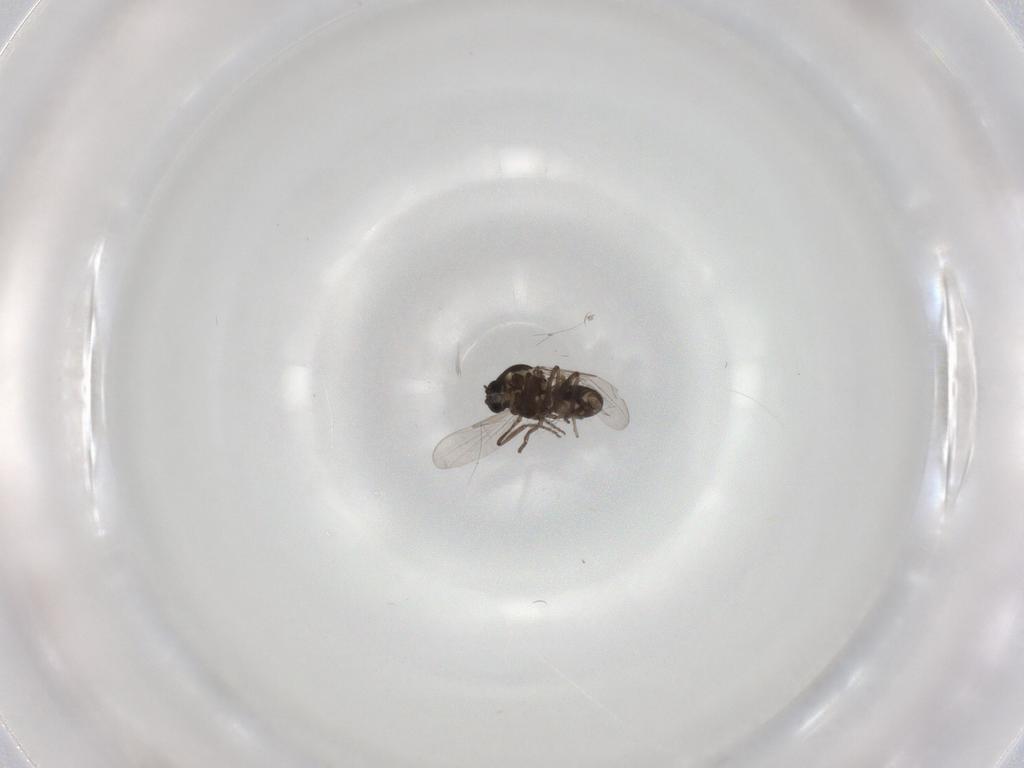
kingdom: Animalia
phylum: Arthropoda
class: Insecta
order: Diptera
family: Ceratopogonidae
